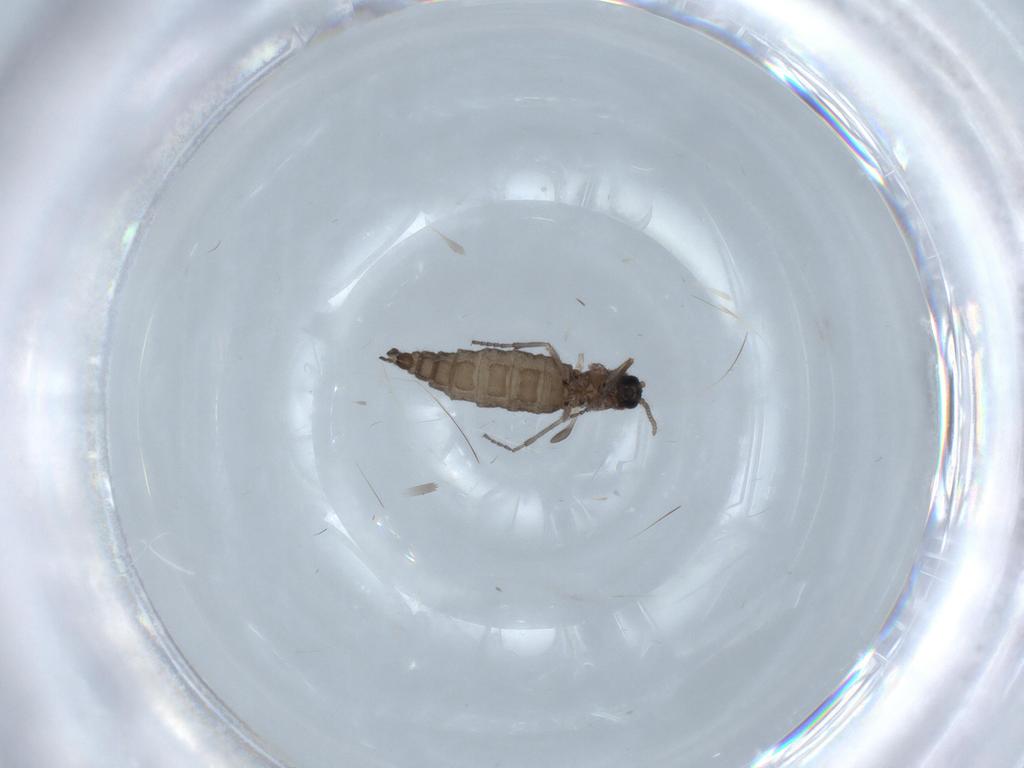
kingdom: Animalia
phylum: Arthropoda
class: Insecta
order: Diptera
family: Sciaridae
